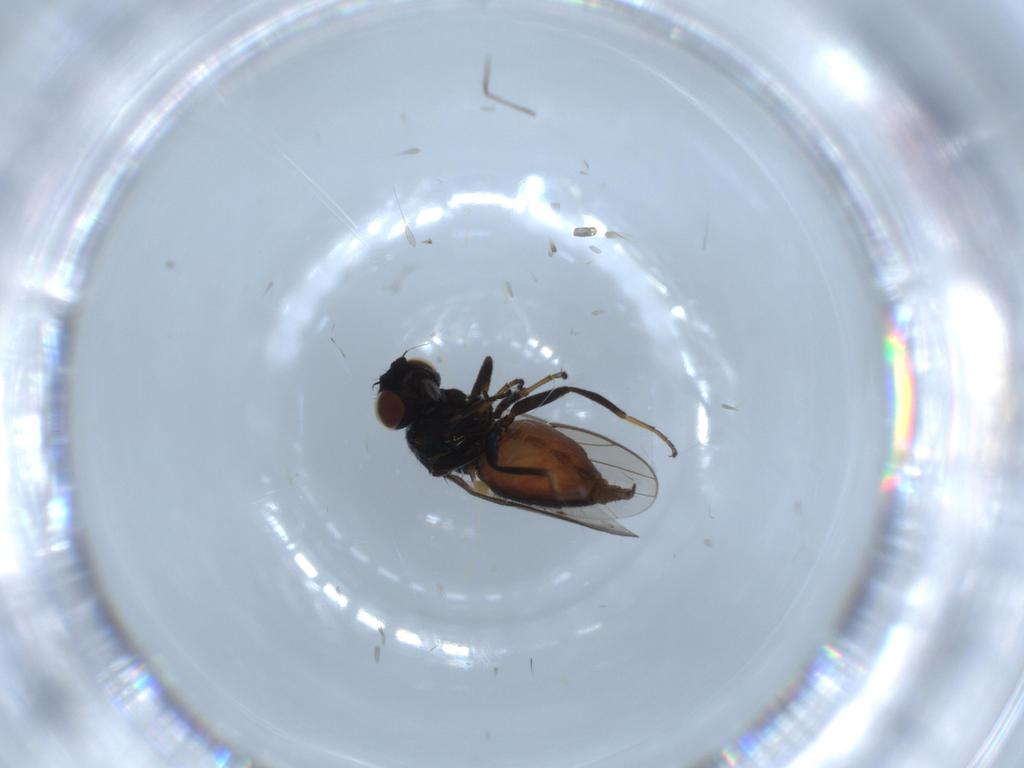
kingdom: Animalia
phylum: Arthropoda
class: Insecta
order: Diptera
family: Chloropidae
